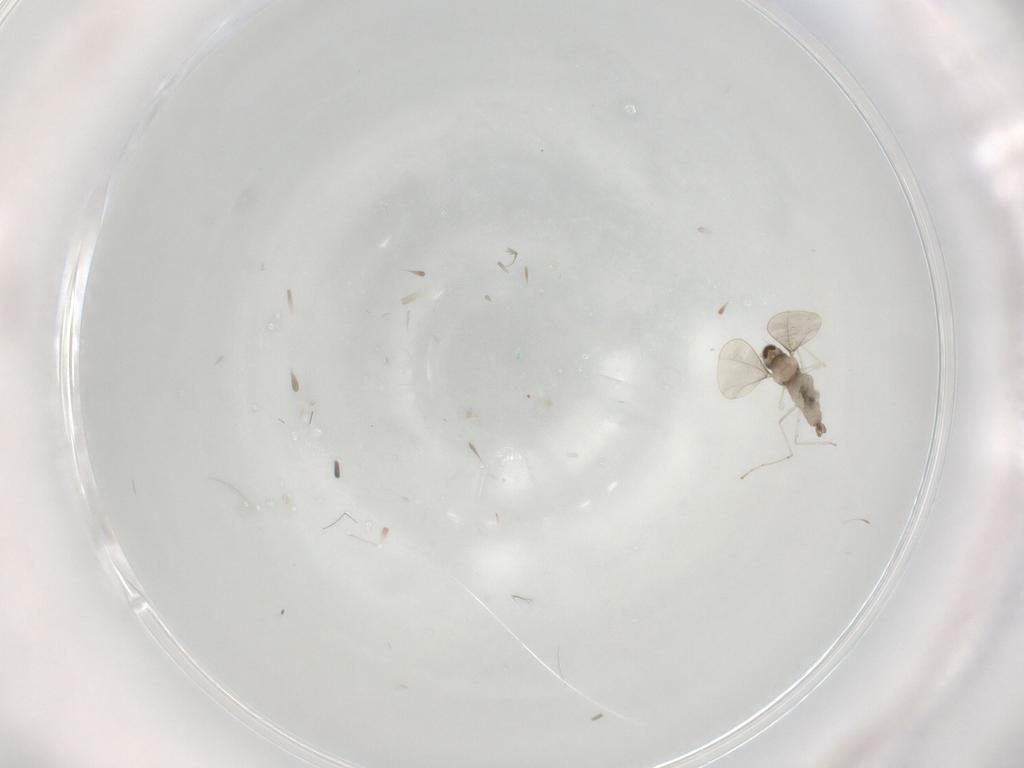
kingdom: Animalia
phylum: Arthropoda
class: Insecta
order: Diptera
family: Cecidomyiidae
